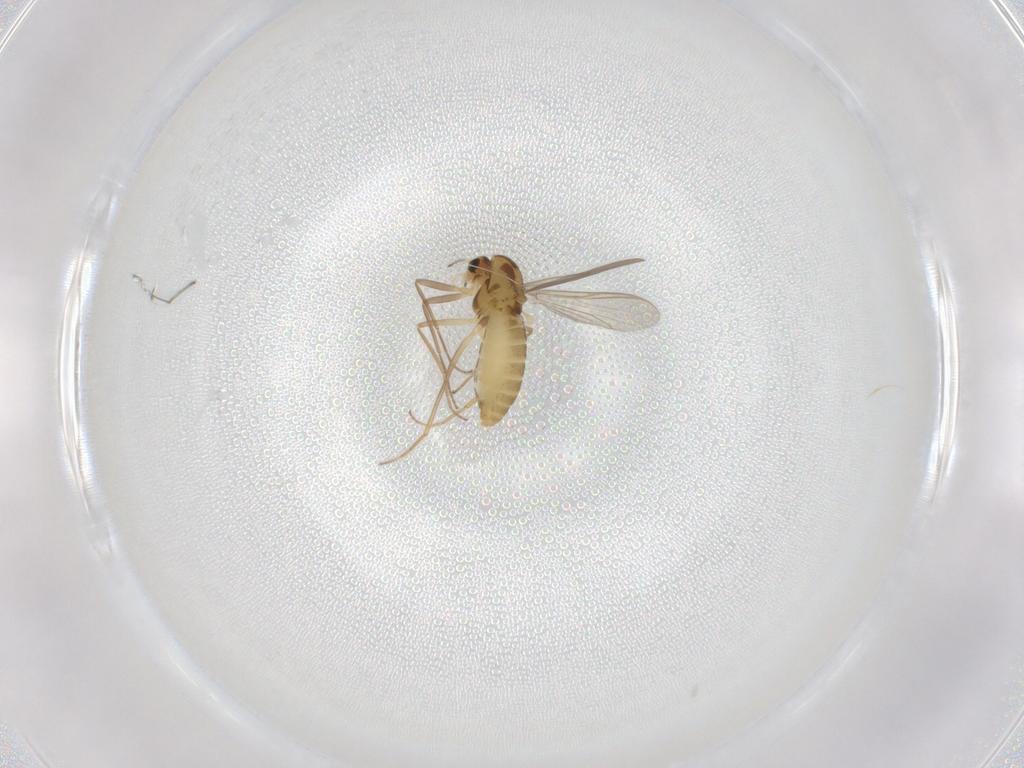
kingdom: Animalia
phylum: Arthropoda
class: Insecta
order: Diptera
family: Chironomidae
